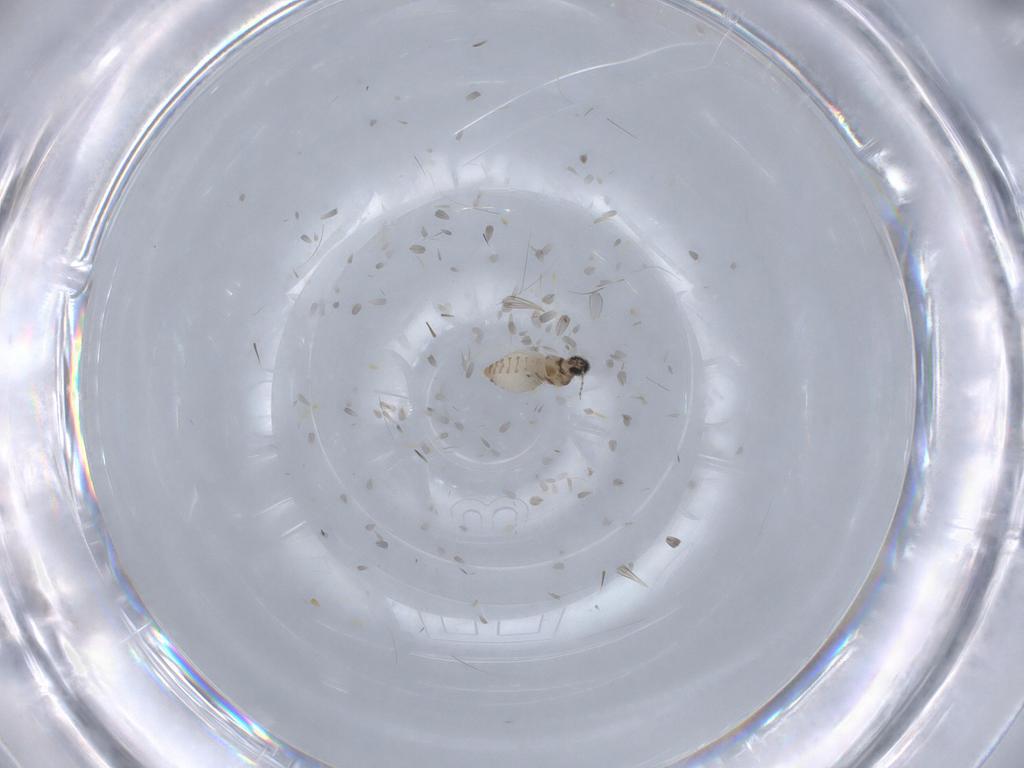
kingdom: Animalia
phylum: Arthropoda
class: Insecta
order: Diptera
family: Cecidomyiidae
